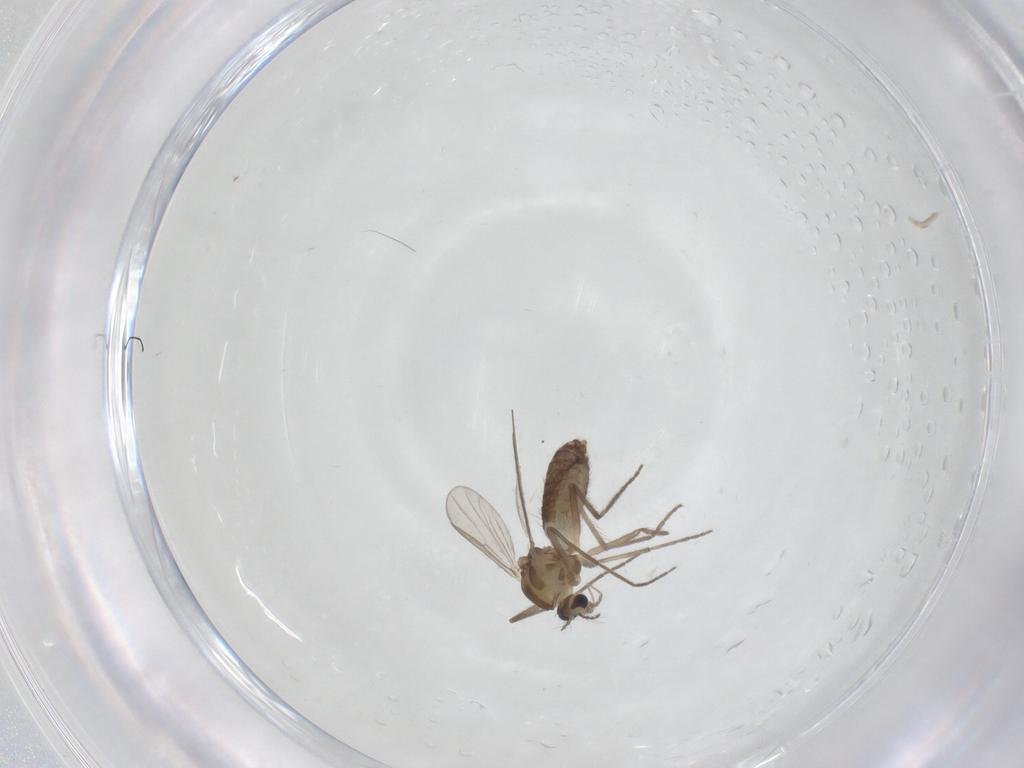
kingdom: Animalia
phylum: Arthropoda
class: Insecta
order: Diptera
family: Chironomidae
